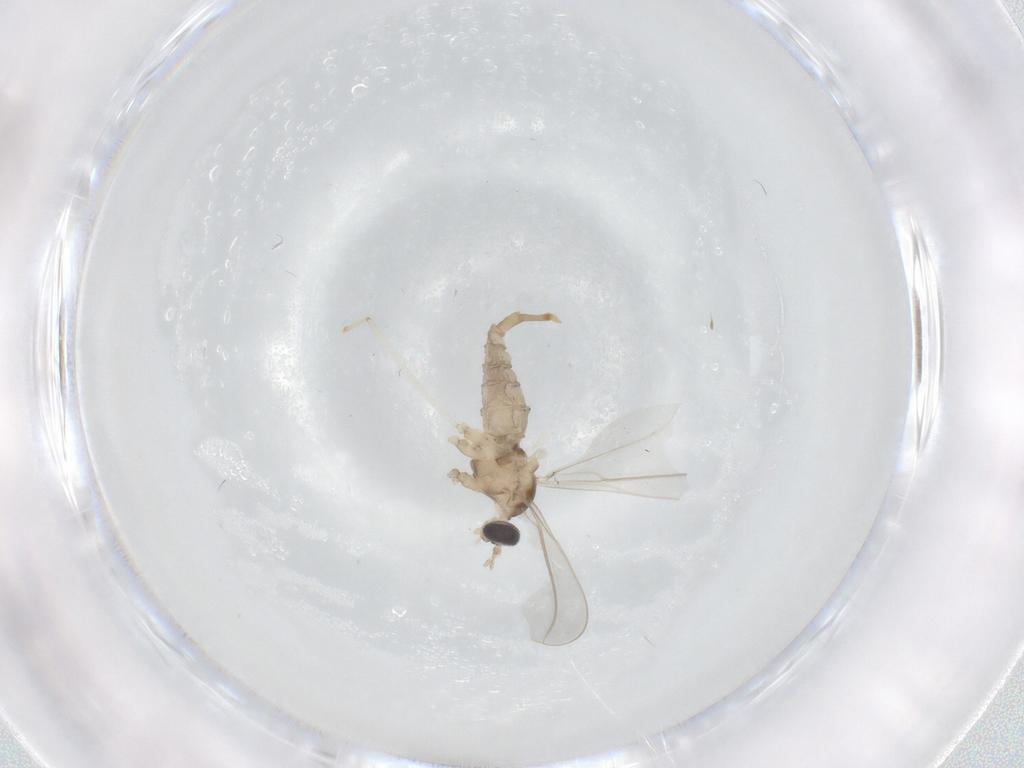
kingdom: Animalia
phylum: Arthropoda
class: Insecta
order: Diptera
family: Cecidomyiidae
